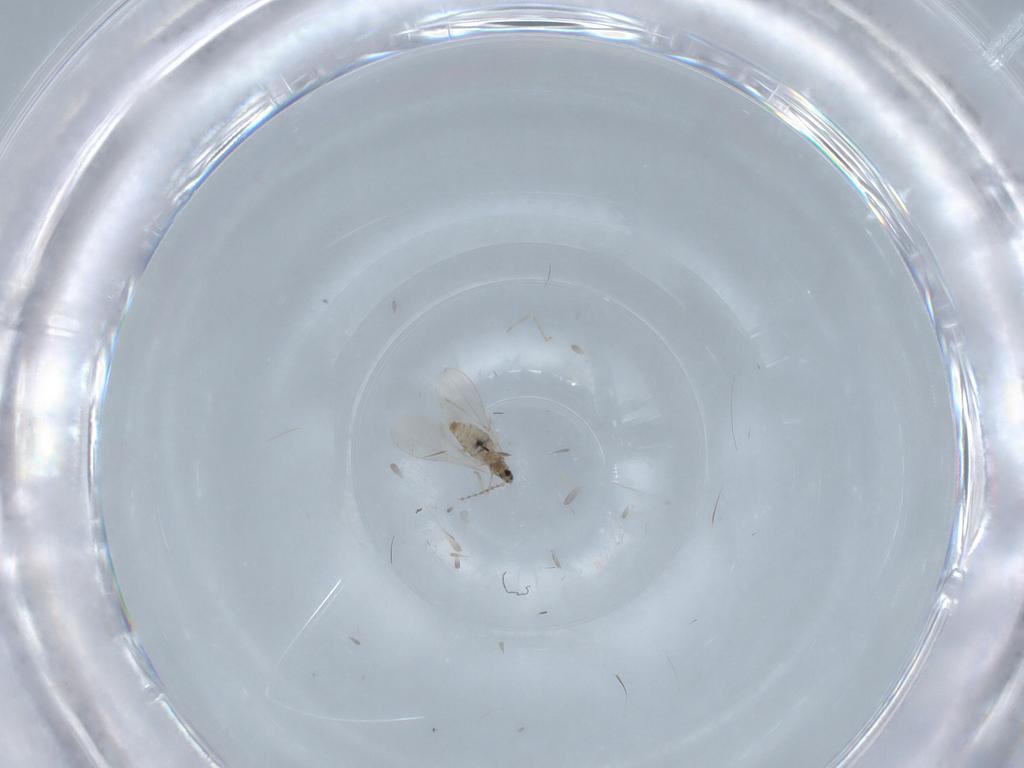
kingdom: Animalia
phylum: Arthropoda
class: Insecta
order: Diptera
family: Cecidomyiidae
